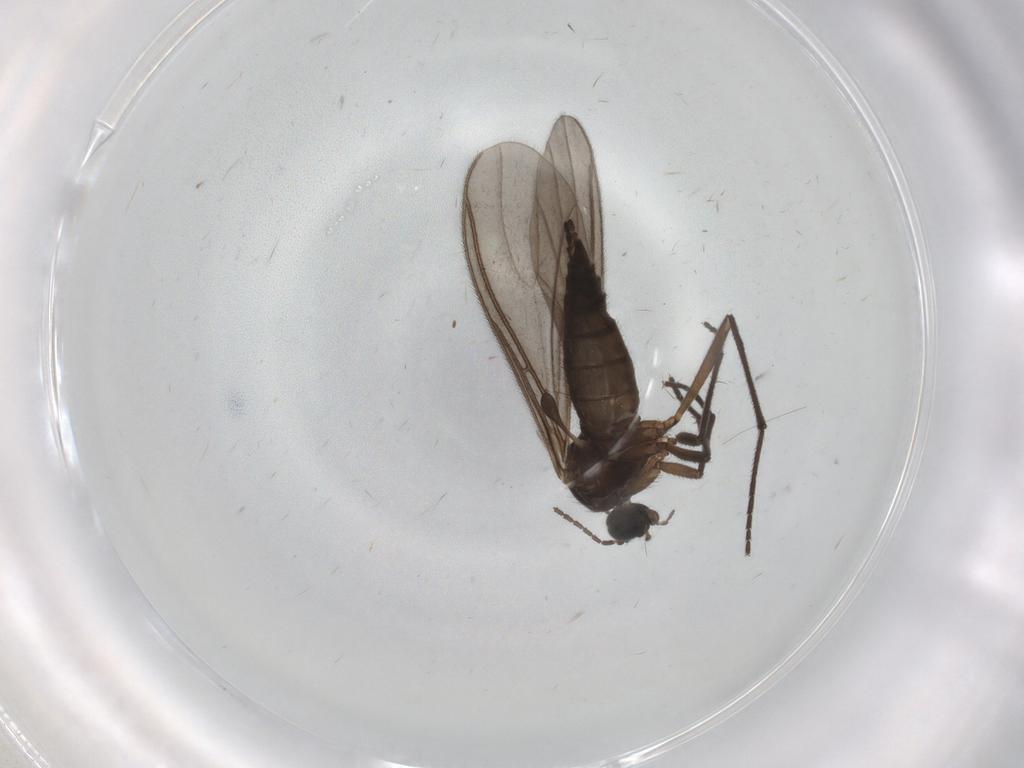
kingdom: Animalia
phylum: Arthropoda
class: Insecta
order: Diptera
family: Sciaridae
